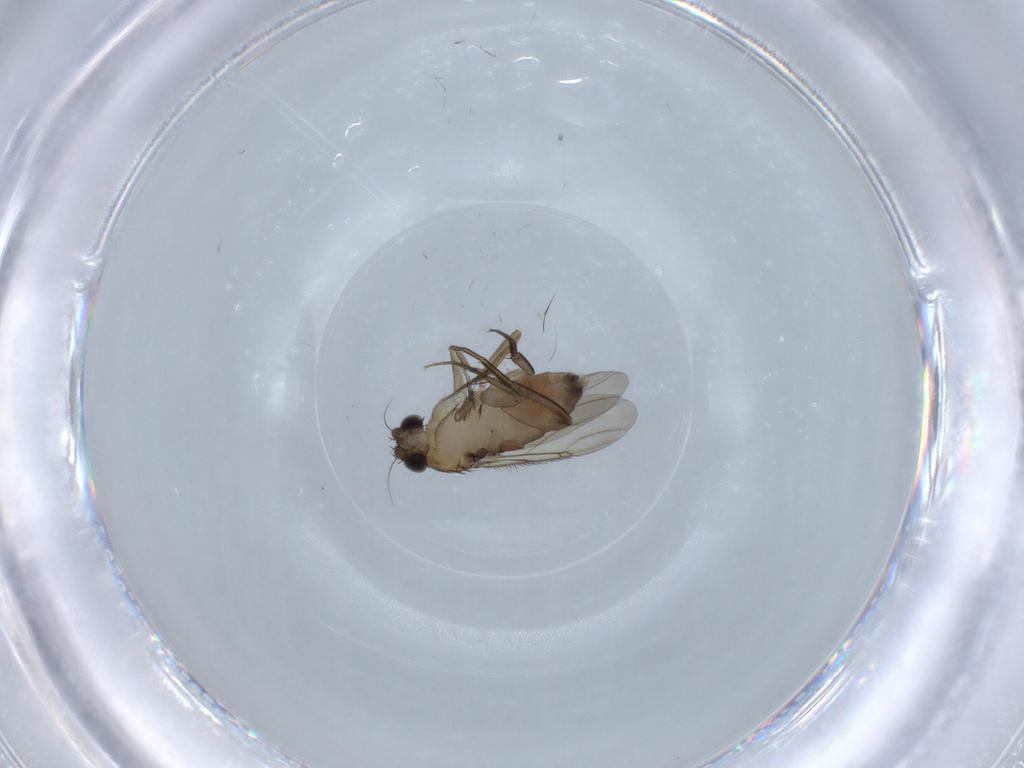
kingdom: Animalia
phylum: Arthropoda
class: Insecta
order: Diptera
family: Phoridae
